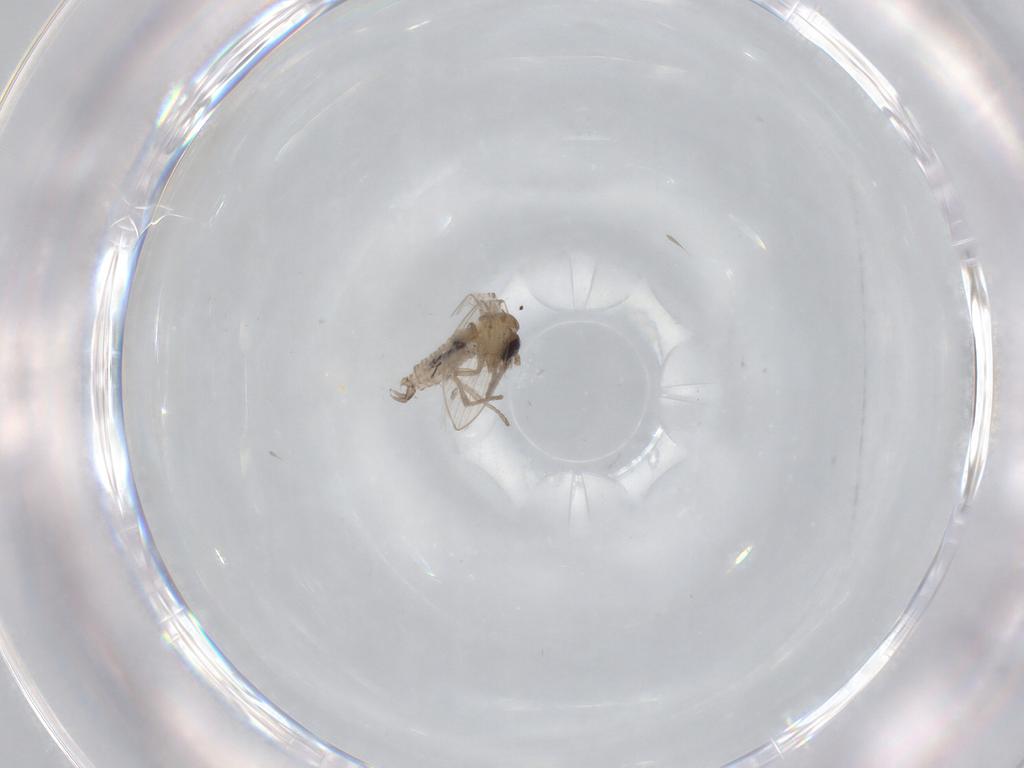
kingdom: Animalia
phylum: Arthropoda
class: Insecta
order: Diptera
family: Psychodidae
